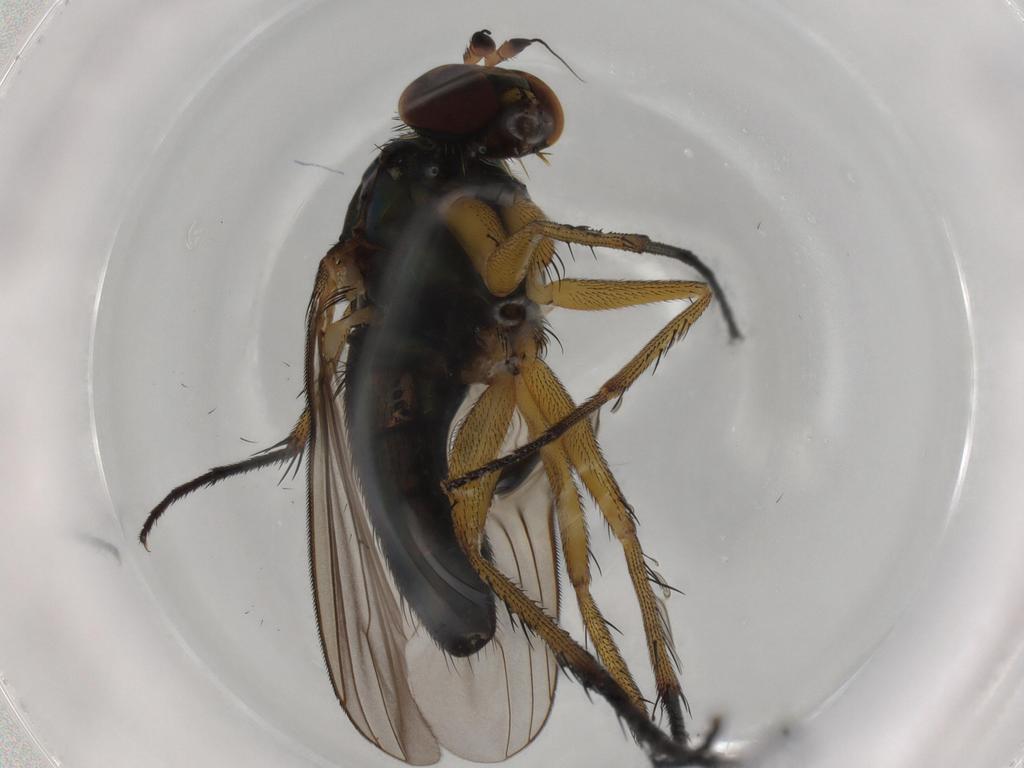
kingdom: Animalia
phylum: Arthropoda
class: Insecta
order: Diptera
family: Dolichopodidae
